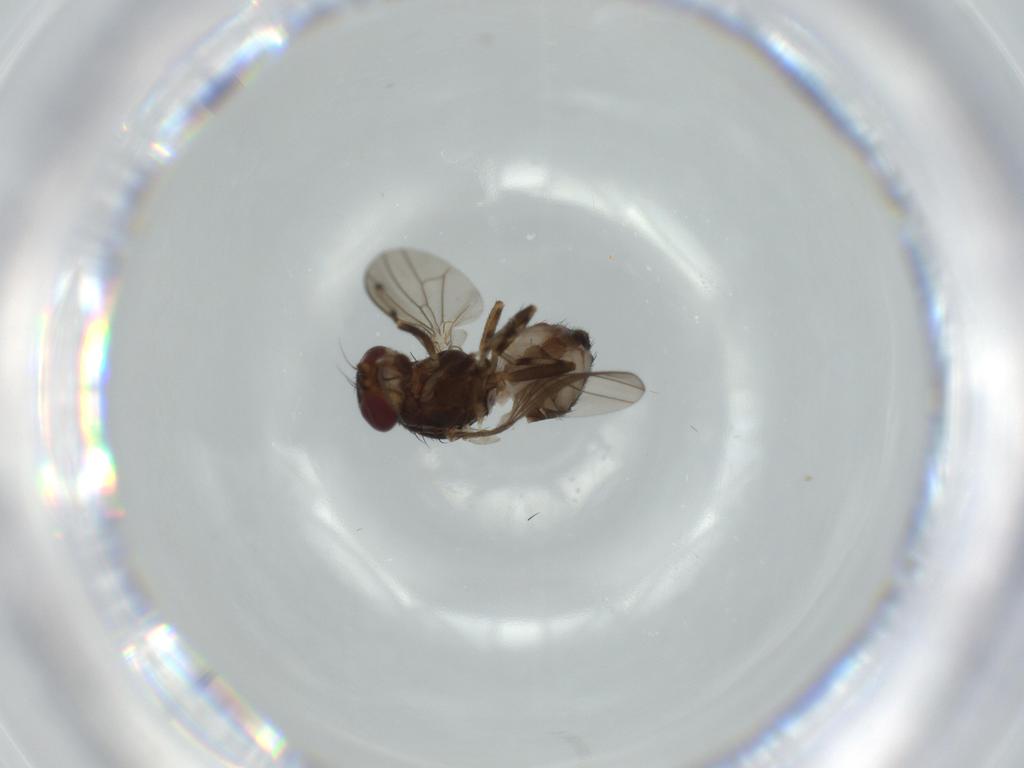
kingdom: Animalia
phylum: Arthropoda
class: Insecta
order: Diptera
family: Heleomyzidae
